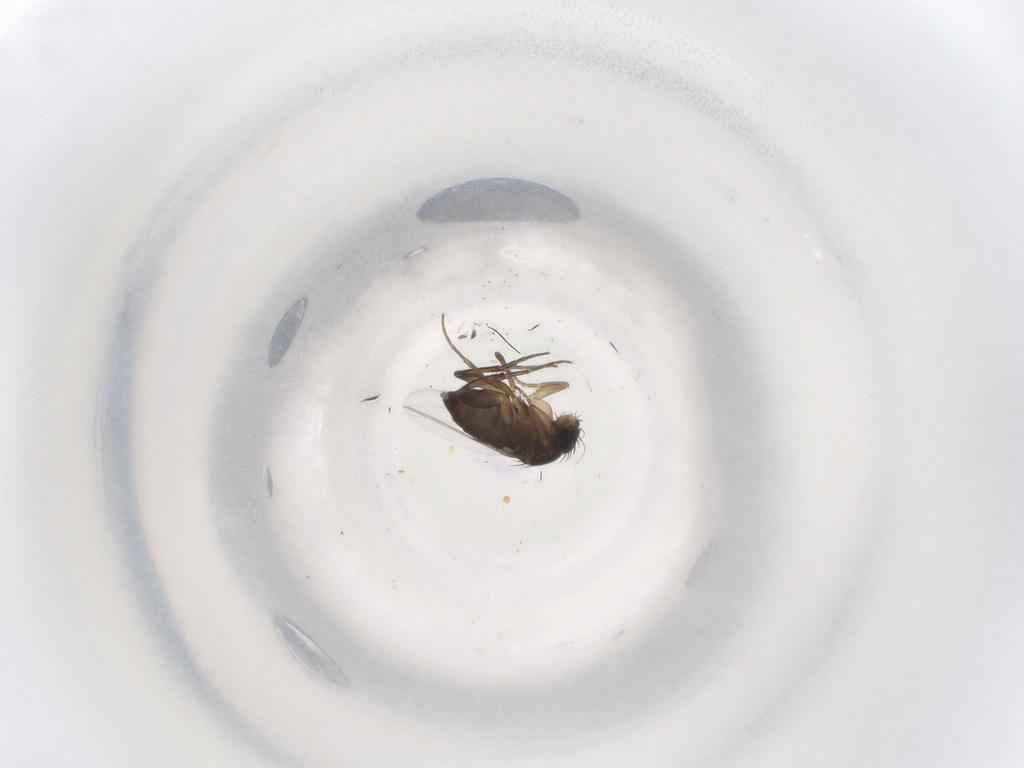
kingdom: Animalia
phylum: Arthropoda
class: Insecta
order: Diptera
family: Phoridae
